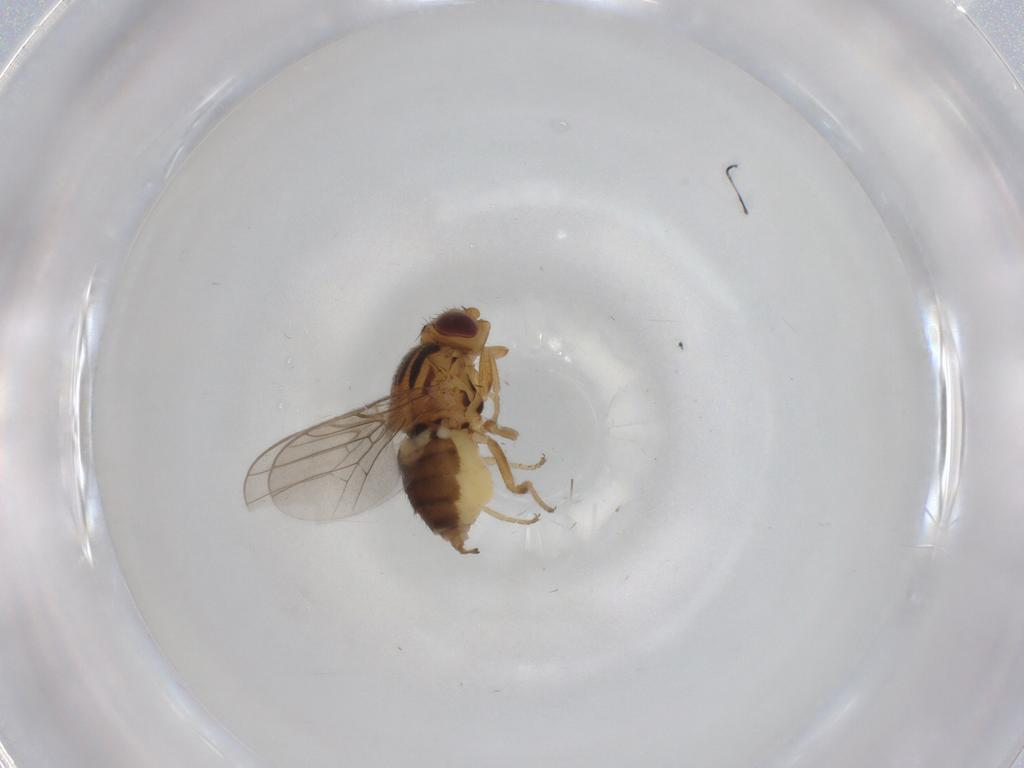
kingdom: Animalia
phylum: Arthropoda
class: Insecta
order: Diptera
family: Chloropidae
